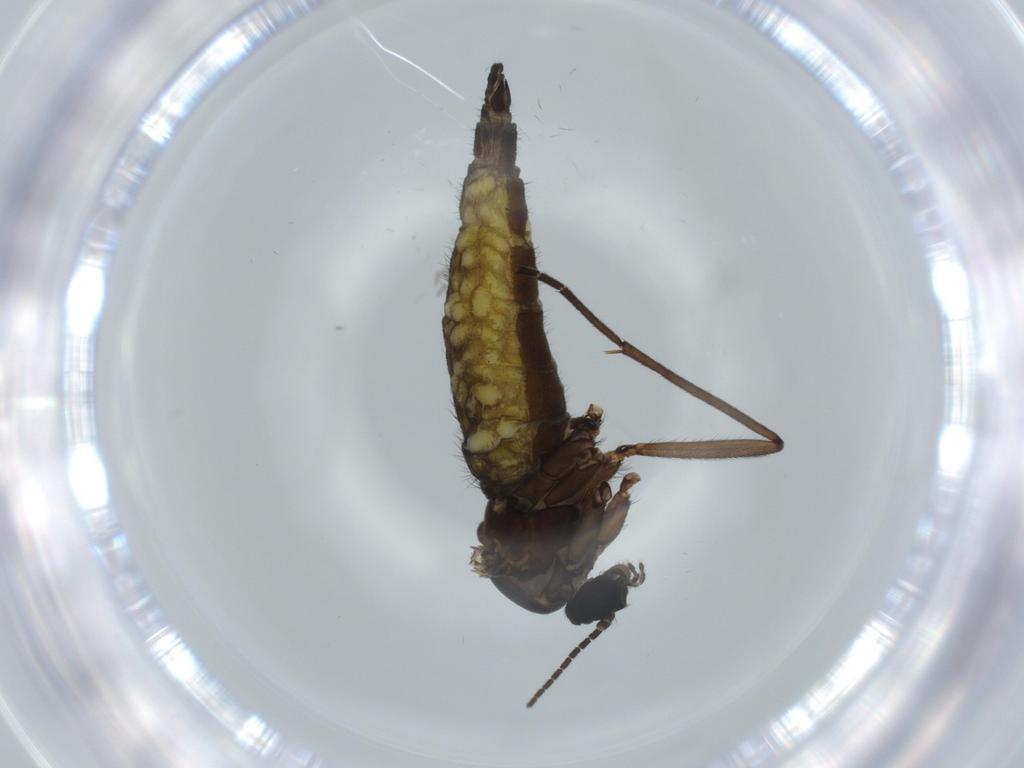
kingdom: Animalia
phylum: Arthropoda
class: Insecta
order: Diptera
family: Sciaridae
